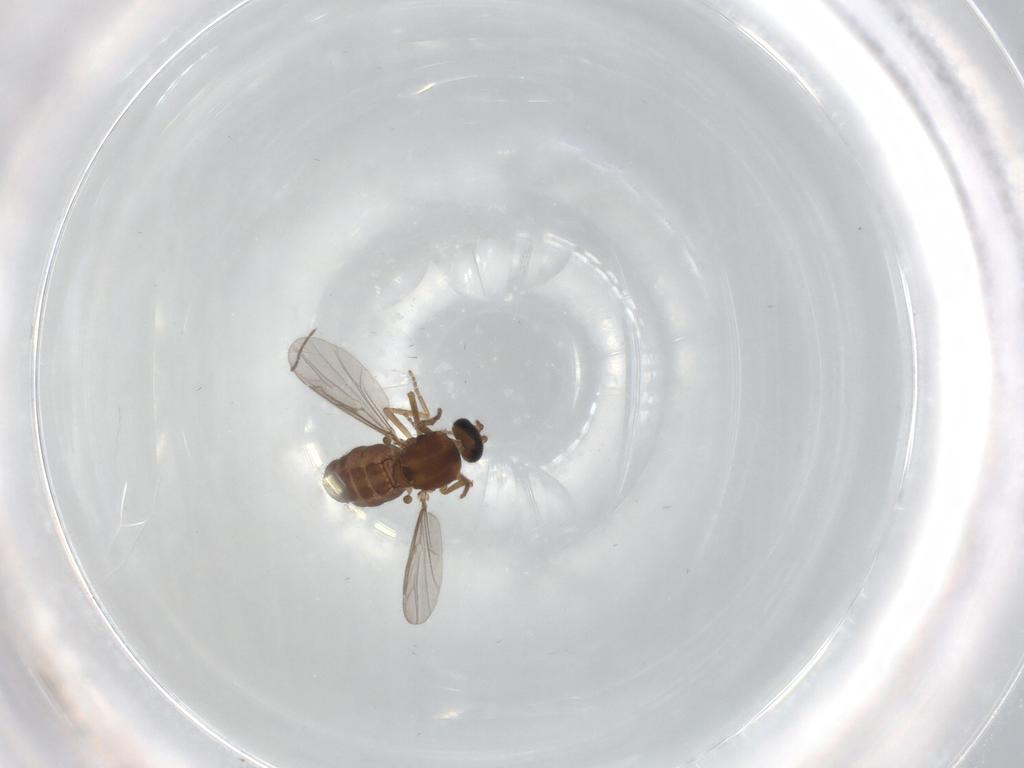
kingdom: Animalia
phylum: Arthropoda
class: Insecta
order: Diptera
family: Ceratopogonidae
